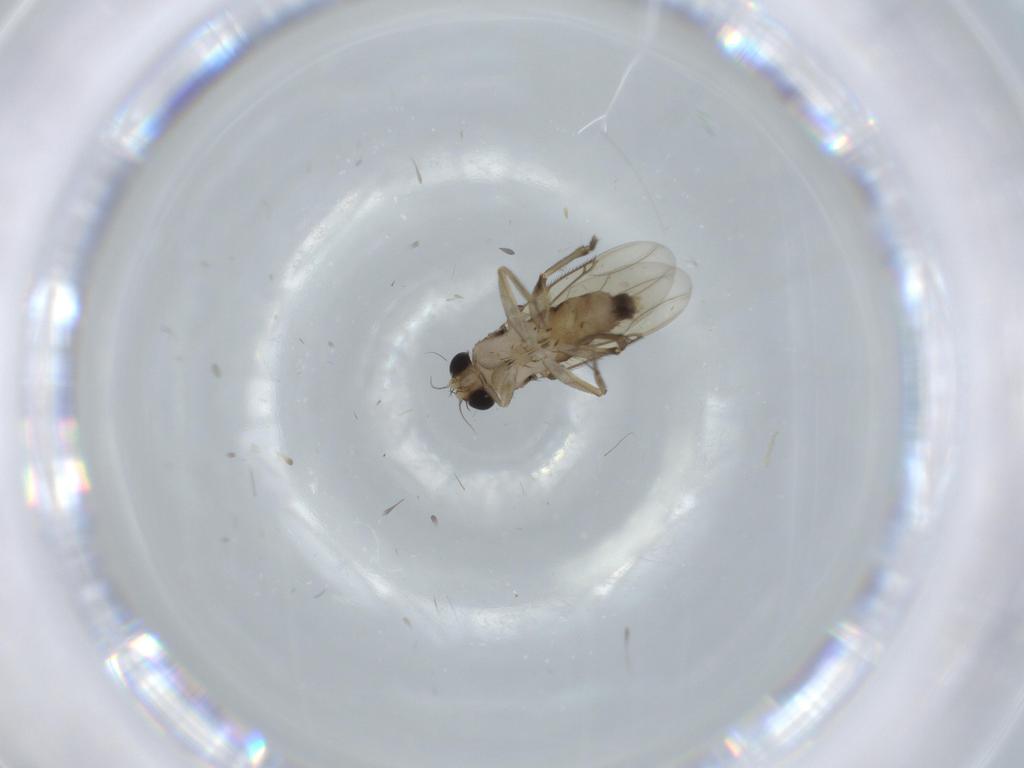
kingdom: Animalia
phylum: Arthropoda
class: Insecta
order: Diptera
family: Phoridae
